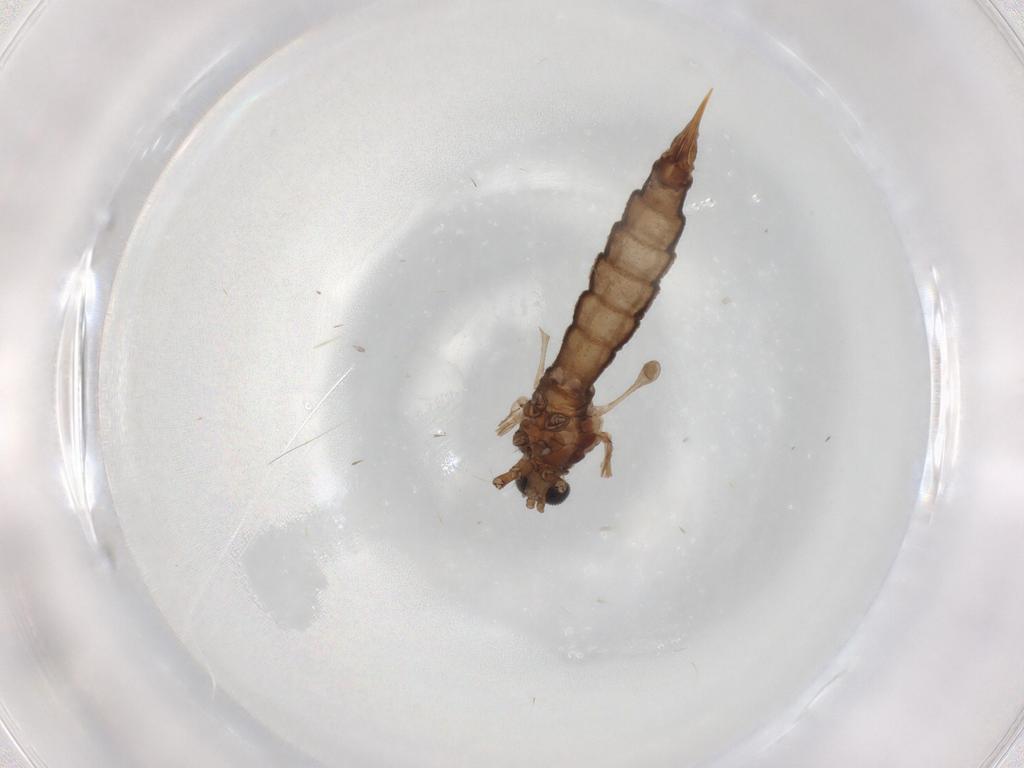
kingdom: Animalia
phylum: Arthropoda
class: Insecta
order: Diptera
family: Limoniidae
